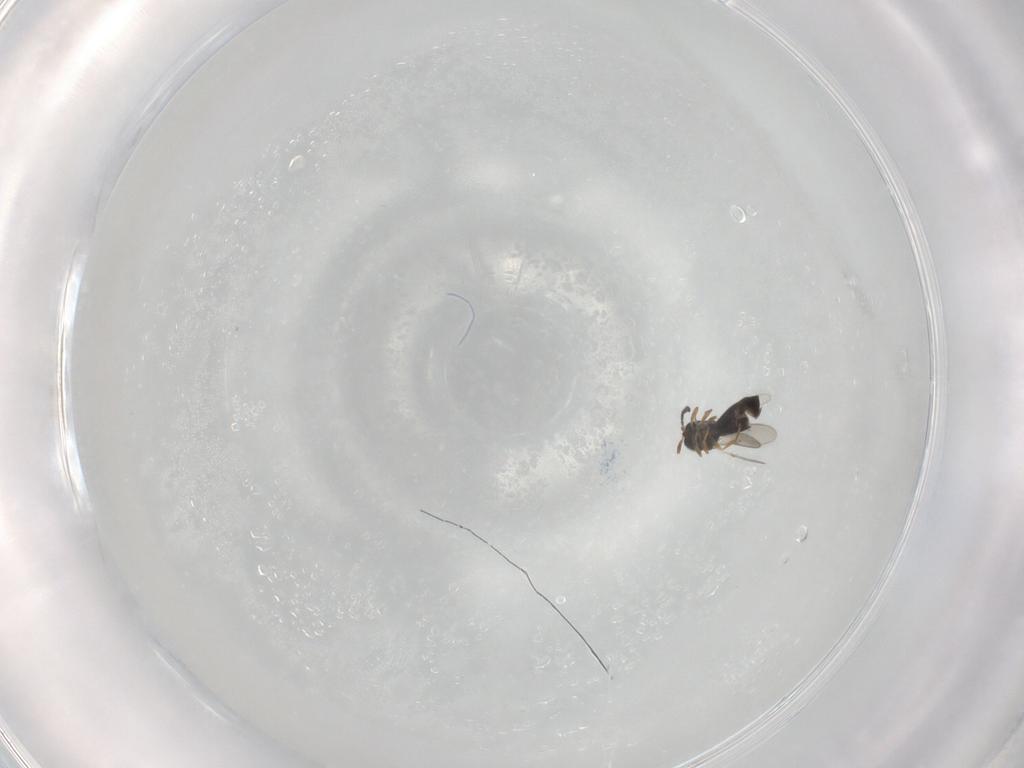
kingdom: Animalia
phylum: Arthropoda
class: Insecta
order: Hymenoptera
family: Scelionidae
